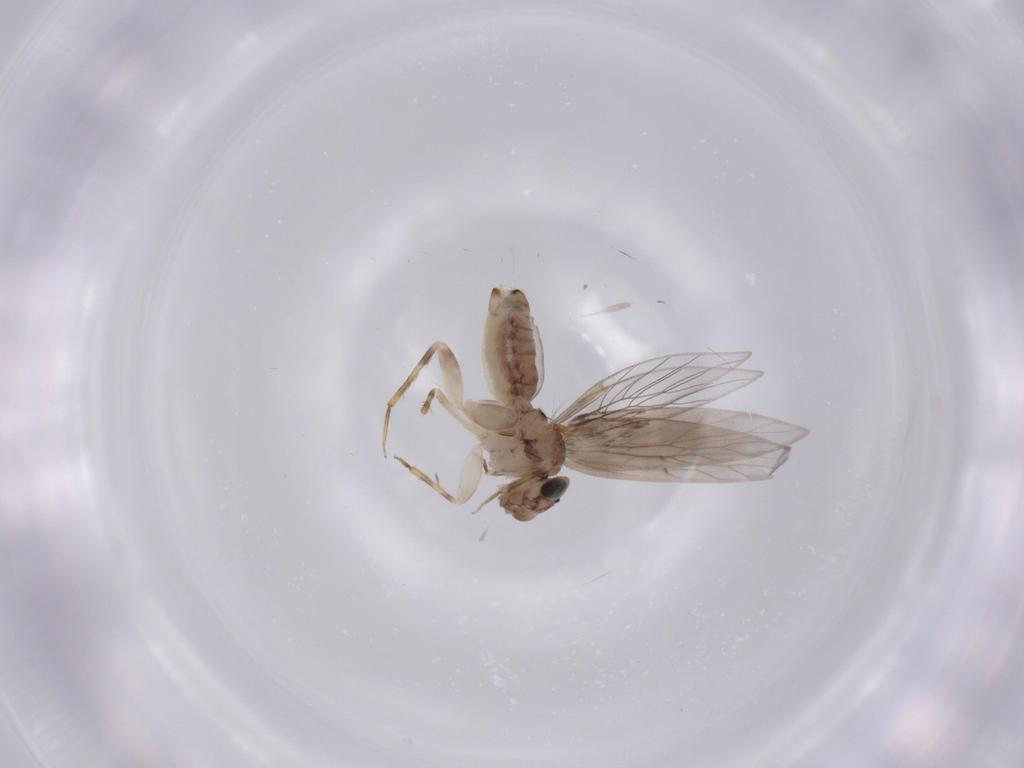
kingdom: Animalia
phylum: Arthropoda
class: Insecta
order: Psocodea
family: Lepidopsocidae
